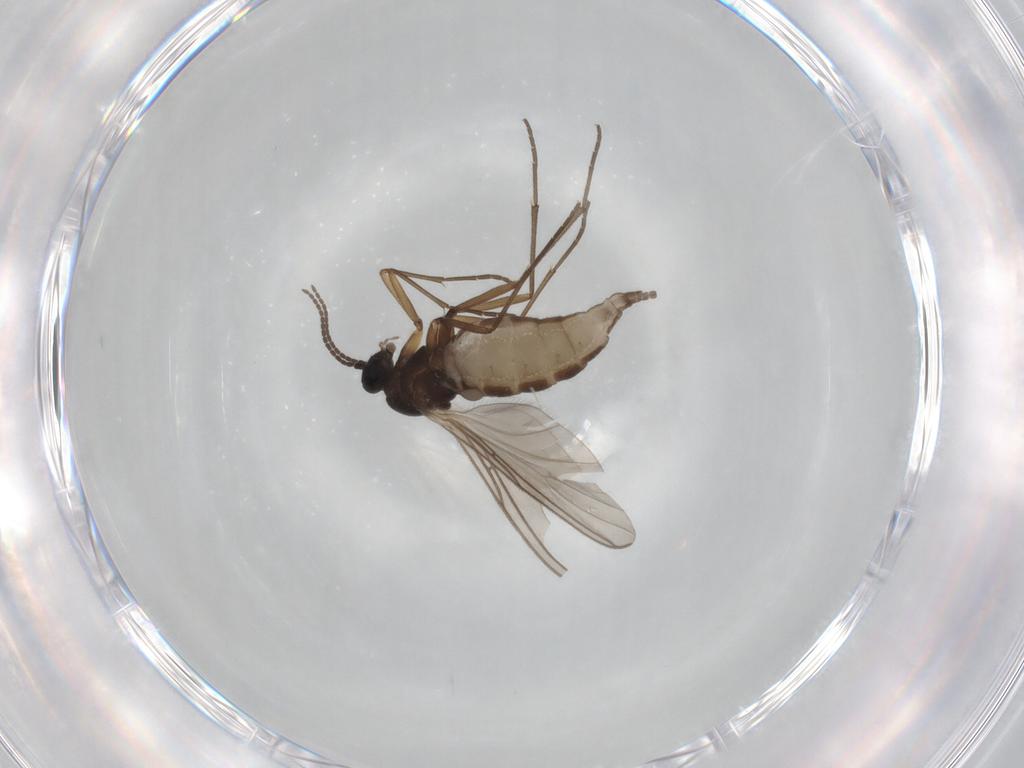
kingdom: Animalia
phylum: Arthropoda
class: Insecta
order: Diptera
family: Sciaridae
